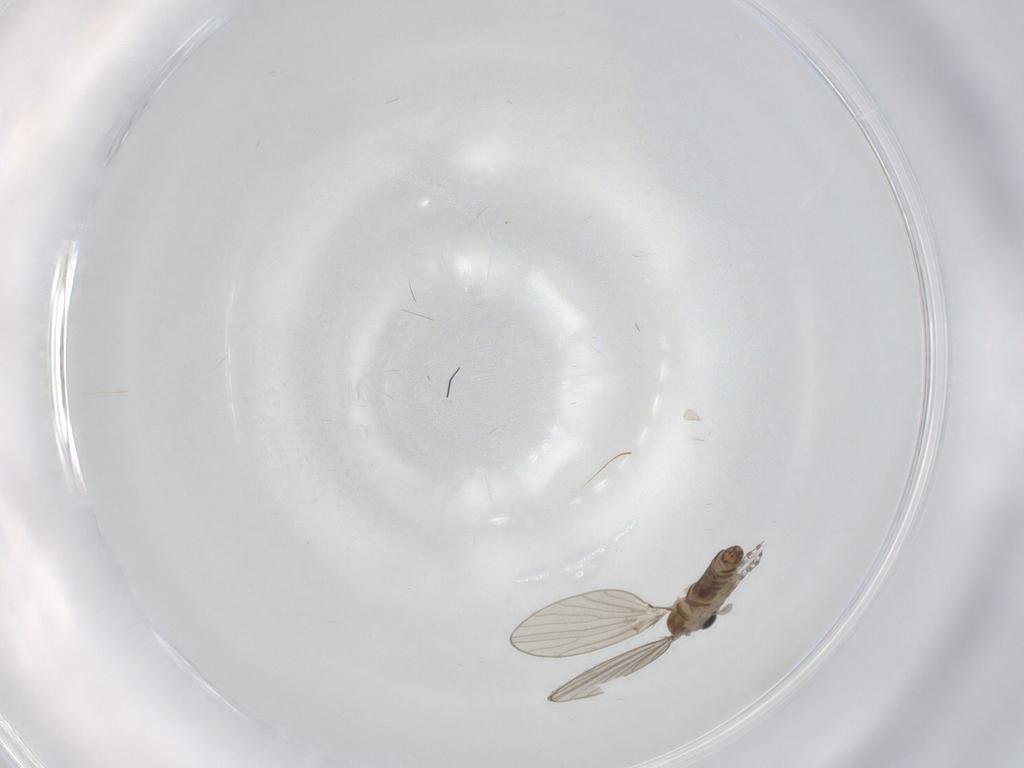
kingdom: Animalia
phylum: Arthropoda
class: Insecta
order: Diptera
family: Psychodidae
